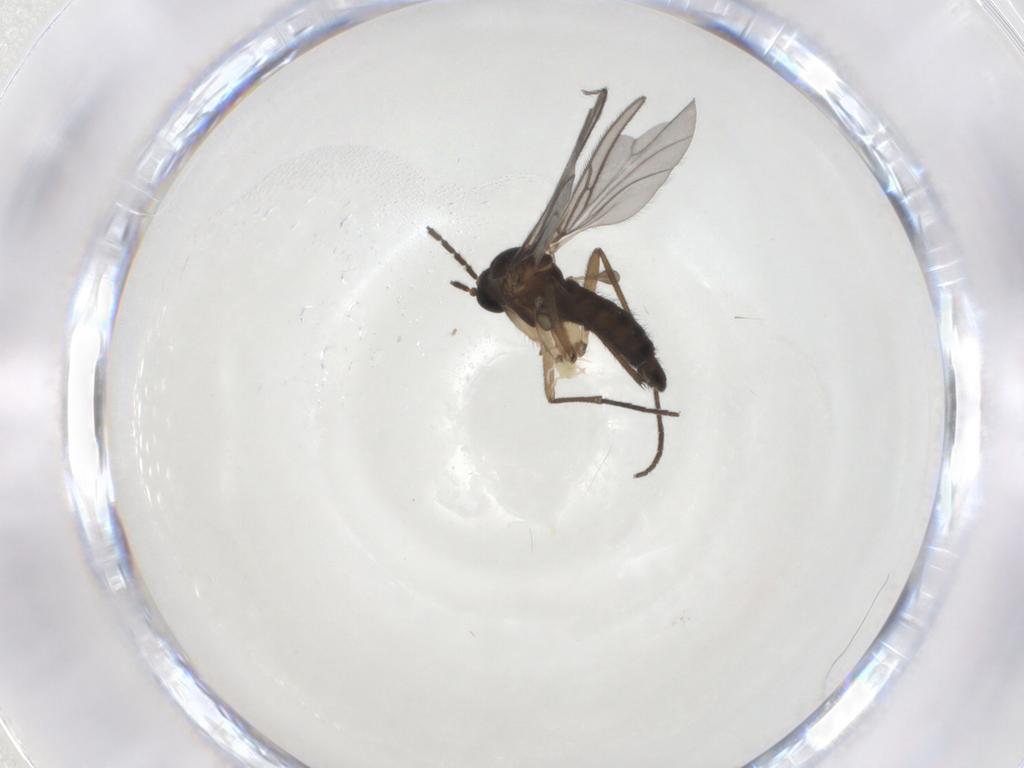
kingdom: Animalia
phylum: Arthropoda
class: Insecta
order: Diptera
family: Sciaridae
